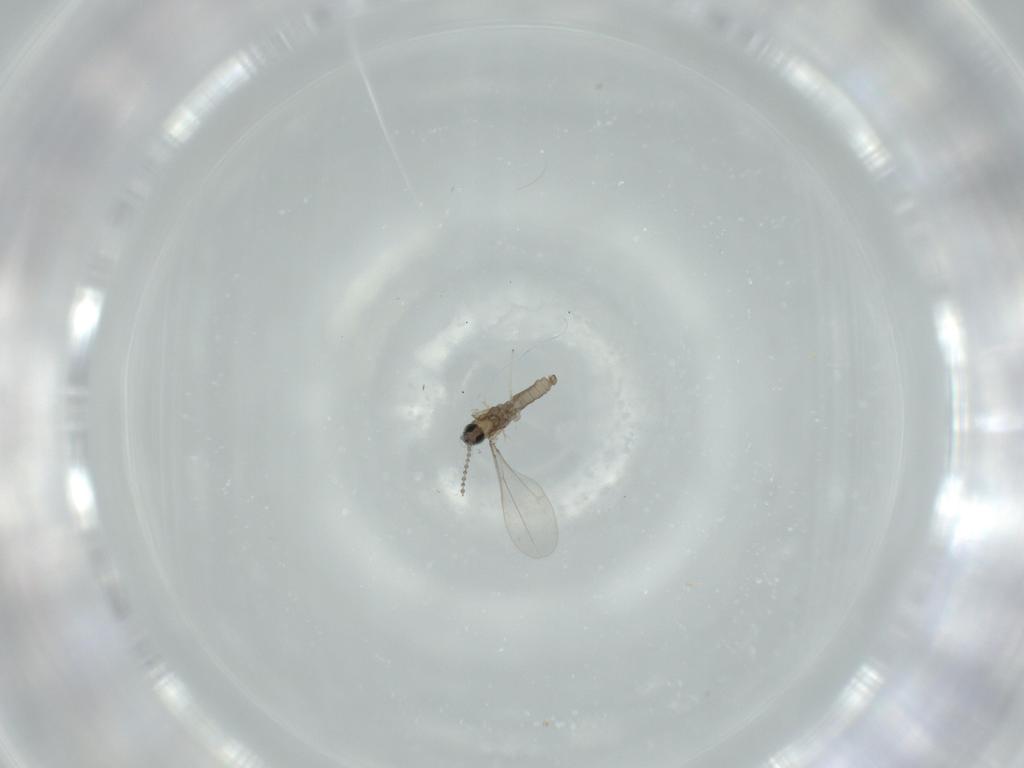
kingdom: Animalia
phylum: Arthropoda
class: Insecta
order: Diptera
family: Cecidomyiidae
